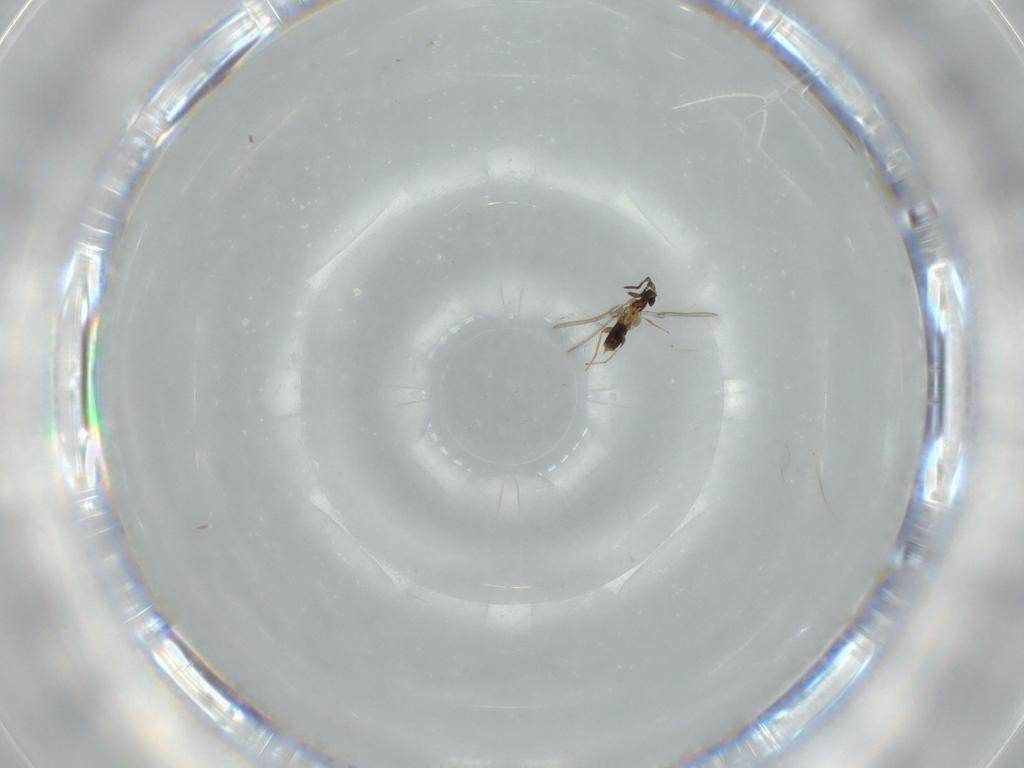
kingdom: Animalia
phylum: Arthropoda
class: Insecta
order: Hymenoptera
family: Mymaridae
